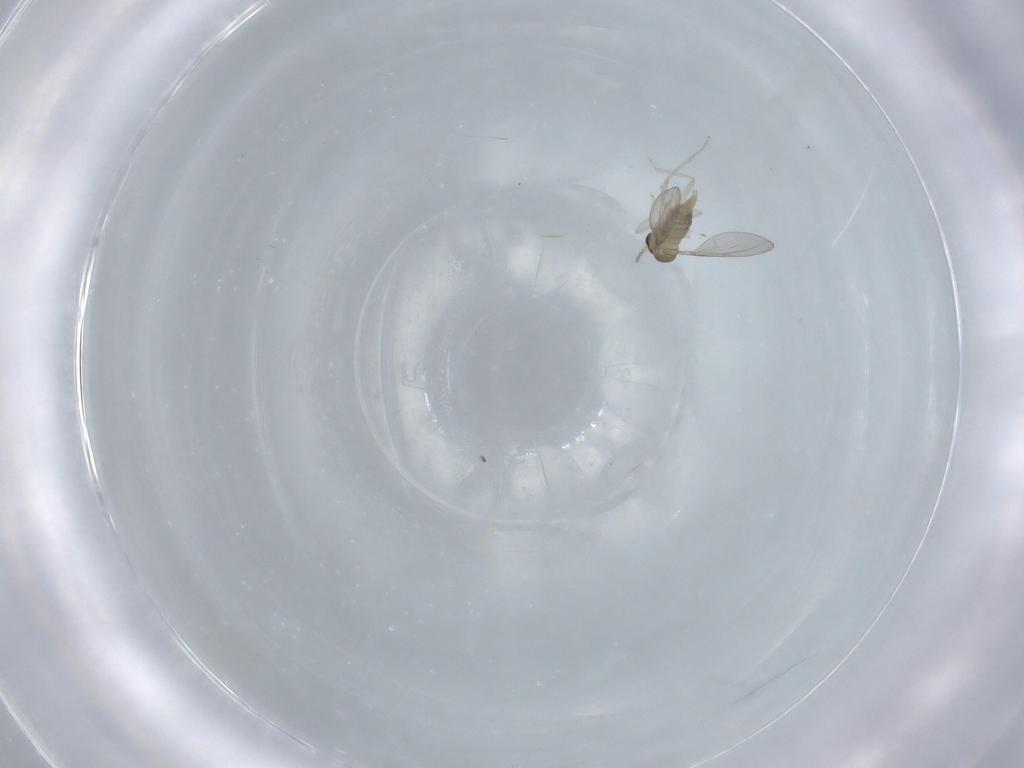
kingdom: Animalia
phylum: Arthropoda
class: Insecta
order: Diptera
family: Cecidomyiidae
